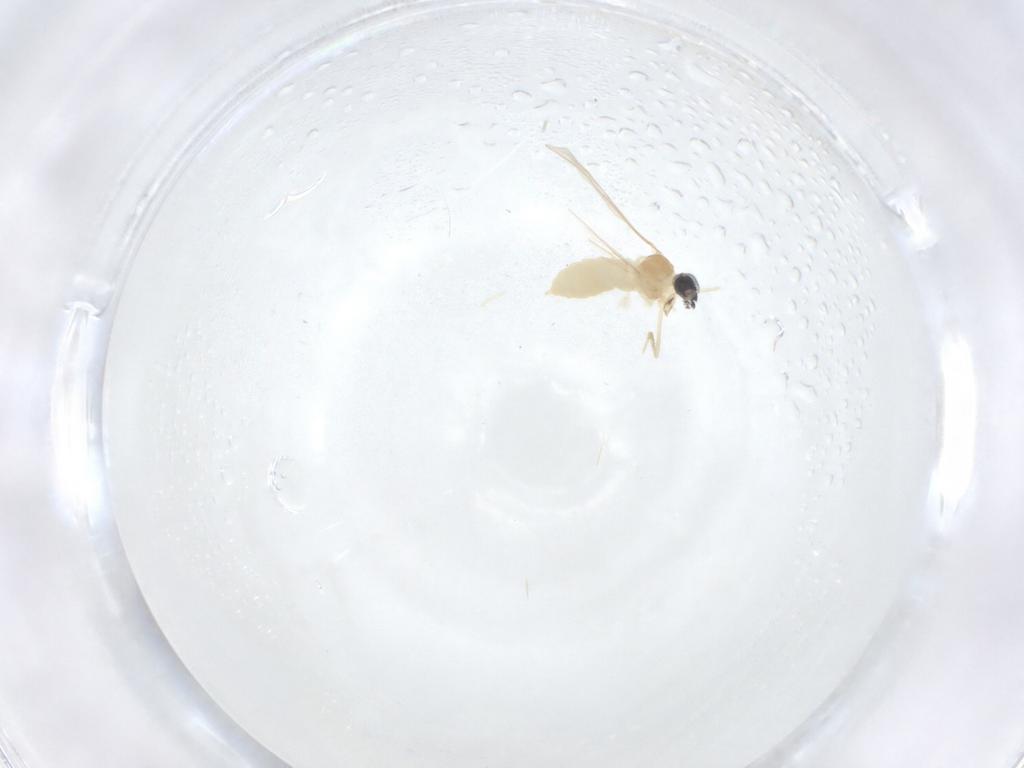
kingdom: Animalia
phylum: Arthropoda
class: Insecta
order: Diptera
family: Cecidomyiidae
